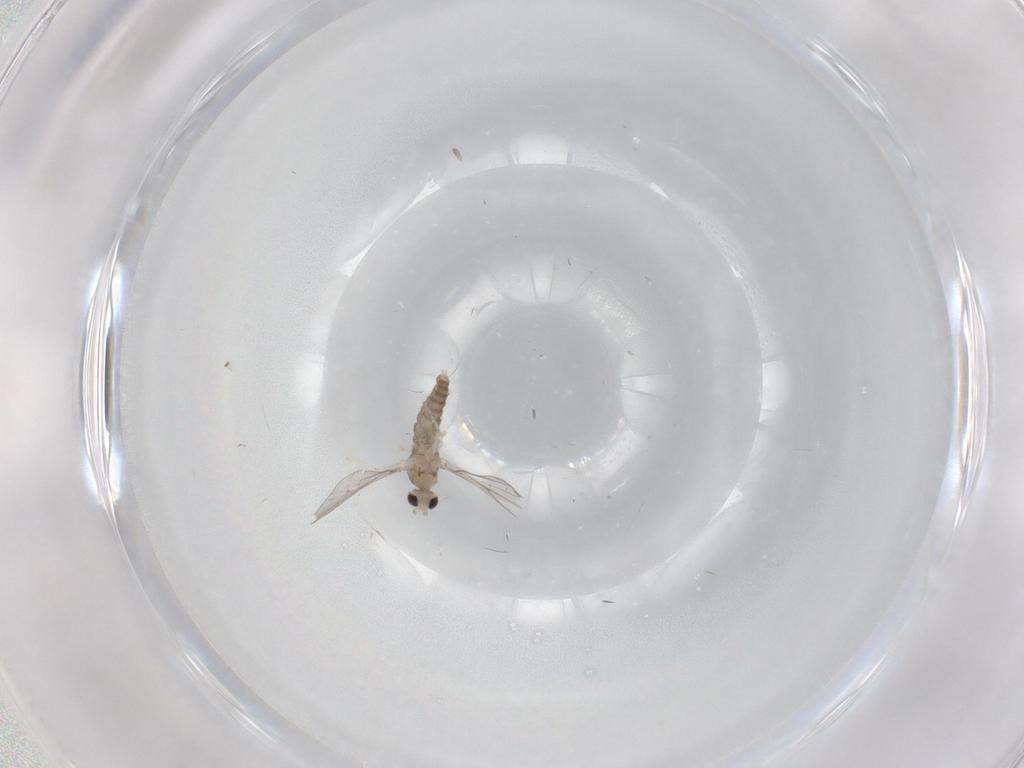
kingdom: Animalia
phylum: Arthropoda
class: Insecta
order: Diptera
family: Cecidomyiidae
